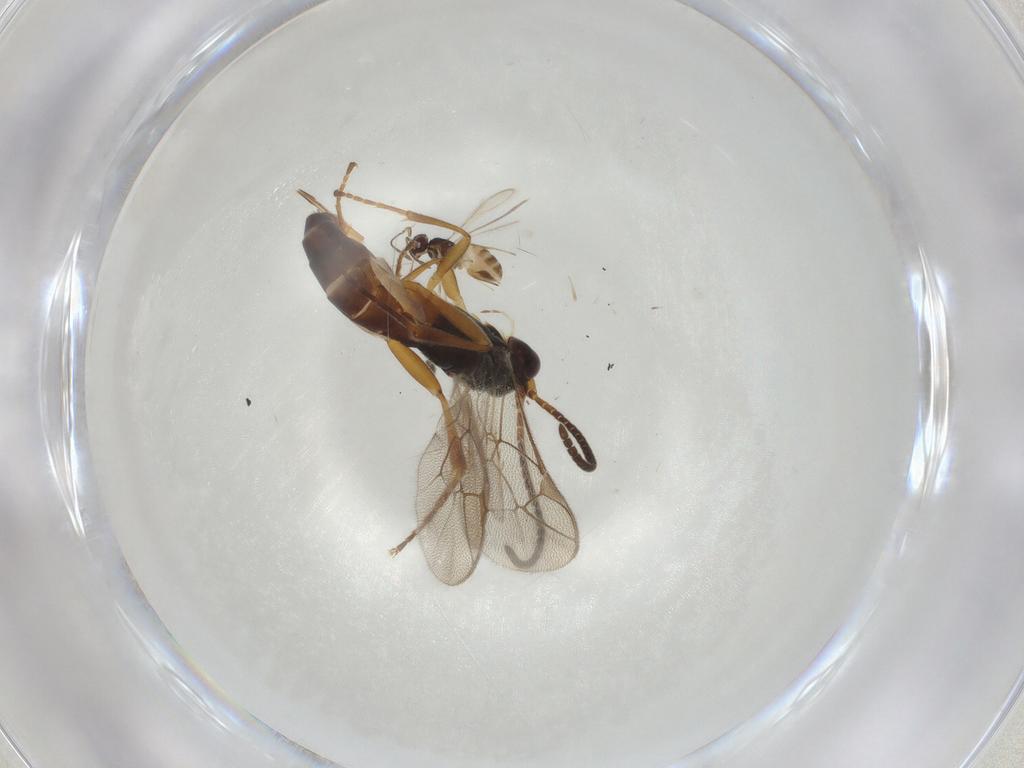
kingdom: Animalia
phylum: Arthropoda
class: Insecta
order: Hymenoptera
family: Ichneumonidae
